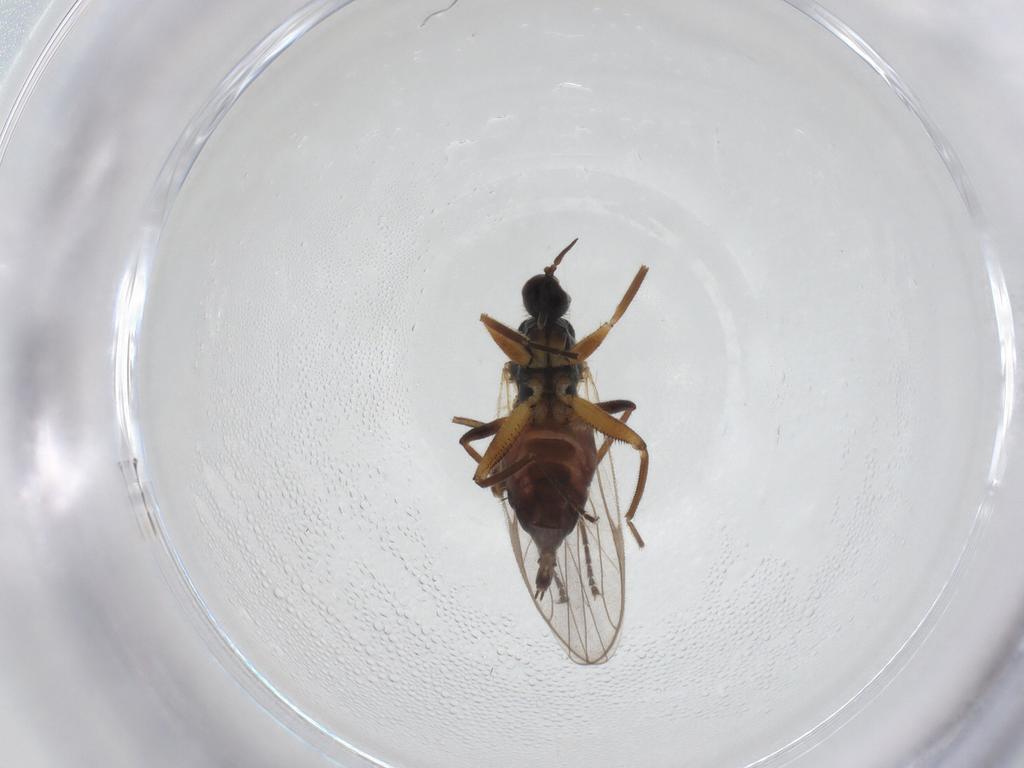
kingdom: Animalia
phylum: Arthropoda
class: Insecta
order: Diptera
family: Hybotidae
